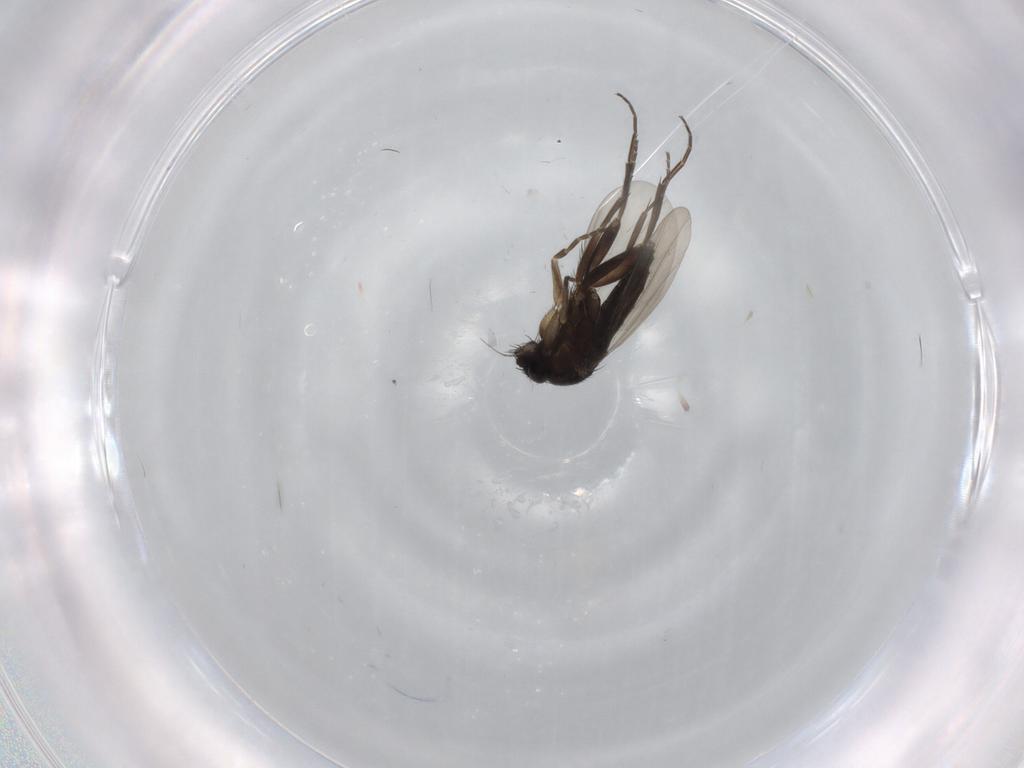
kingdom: Animalia
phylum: Arthropoda
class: Insecta
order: Diptera
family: Phoridae
